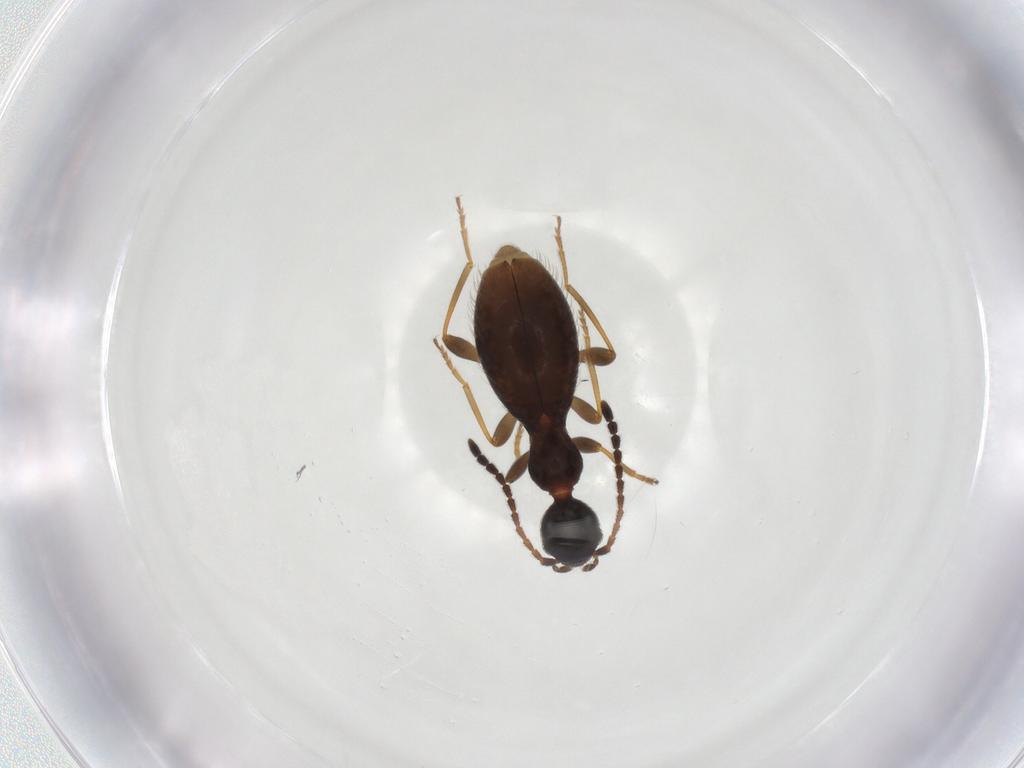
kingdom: Animalia
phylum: Arthropoda
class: Insecta
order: Coleoptera
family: Anthicidae
